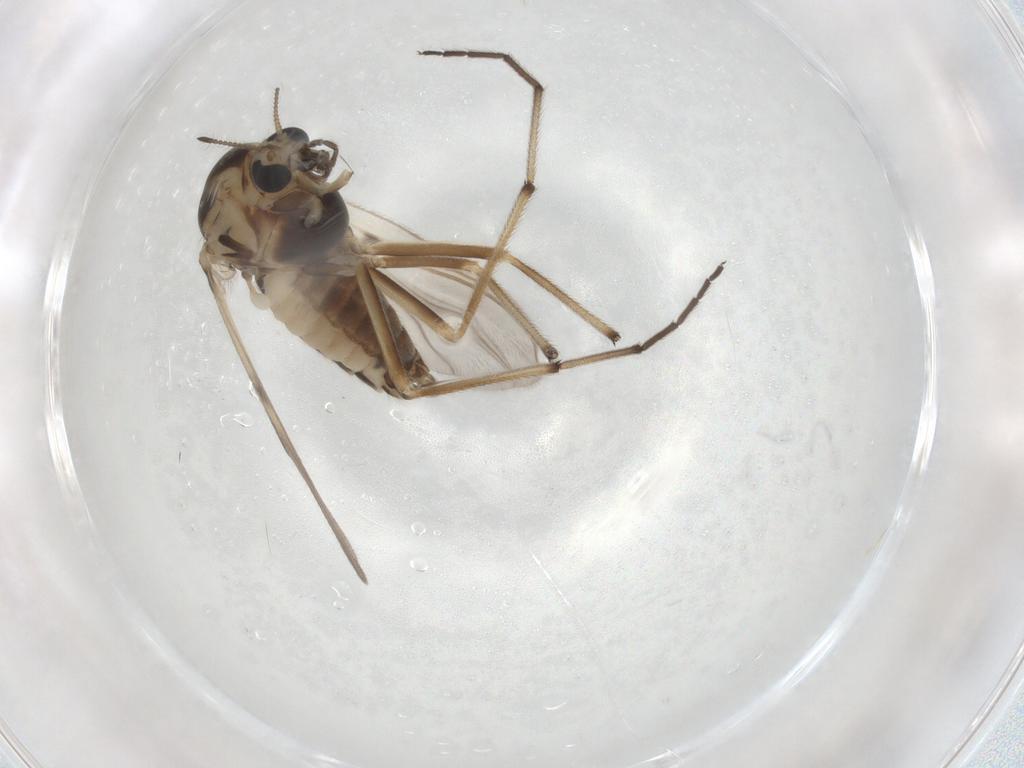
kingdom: Animalia
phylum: Arthropoda
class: Insecta
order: Diptera
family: Chironomidae
